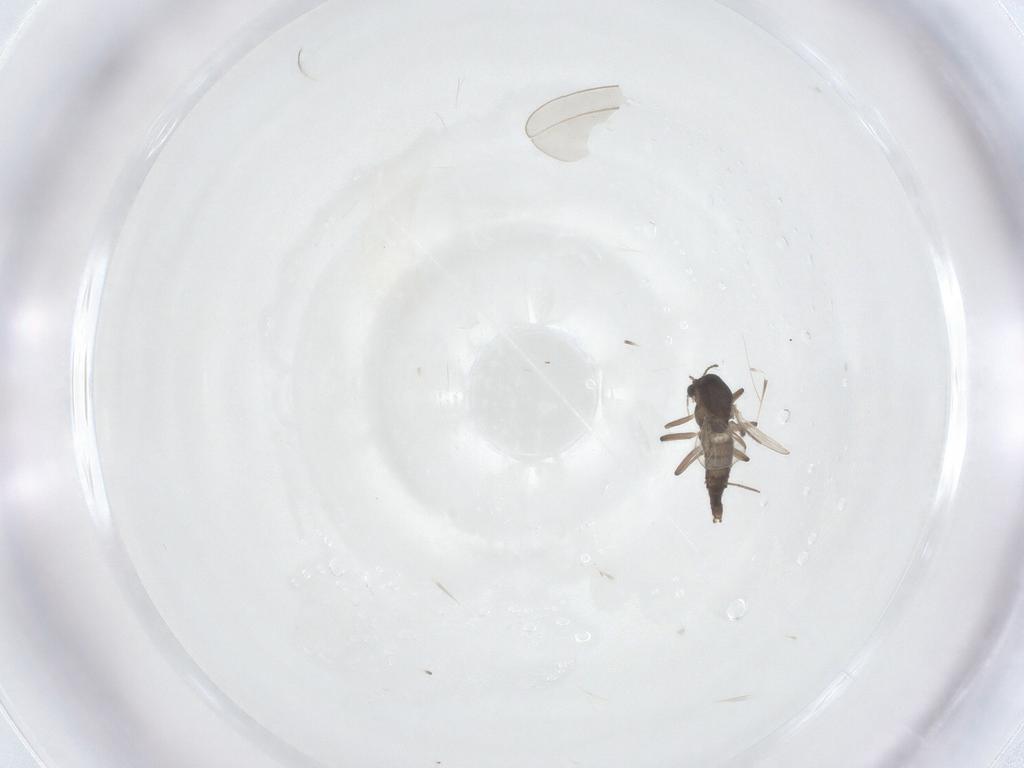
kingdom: Animalia
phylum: Arthropoda
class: Insecta
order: Diptera
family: Chironomidae
